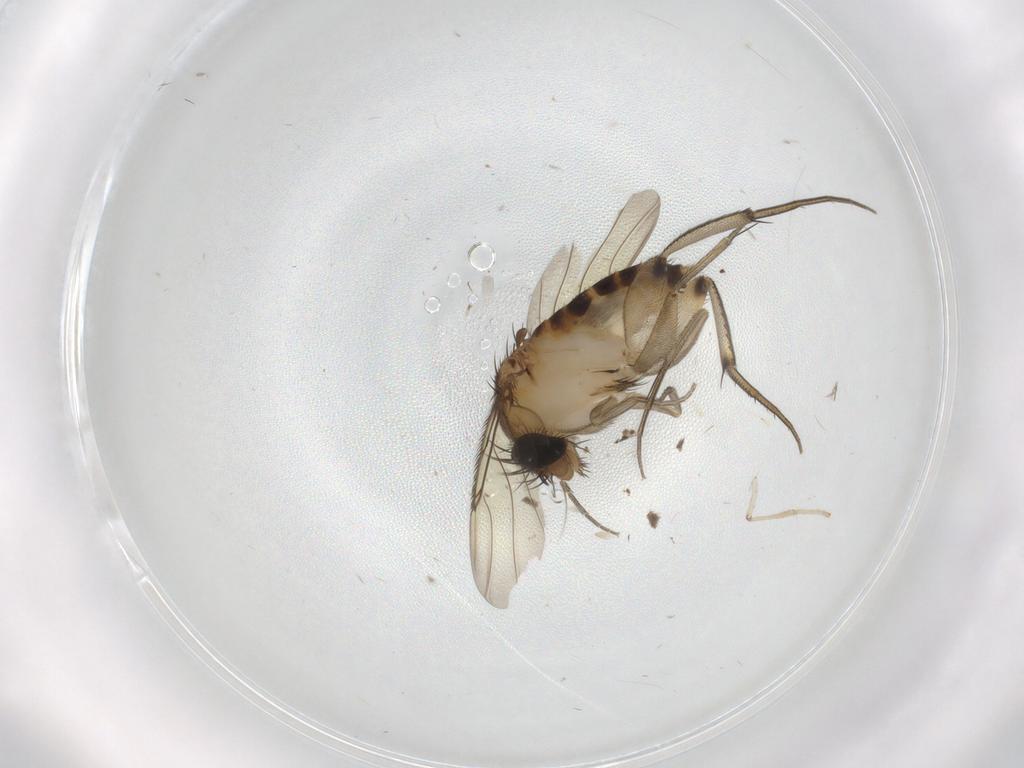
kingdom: Animalia
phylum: Arthropoda
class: Insecta
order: Diptera
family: Phoridae
